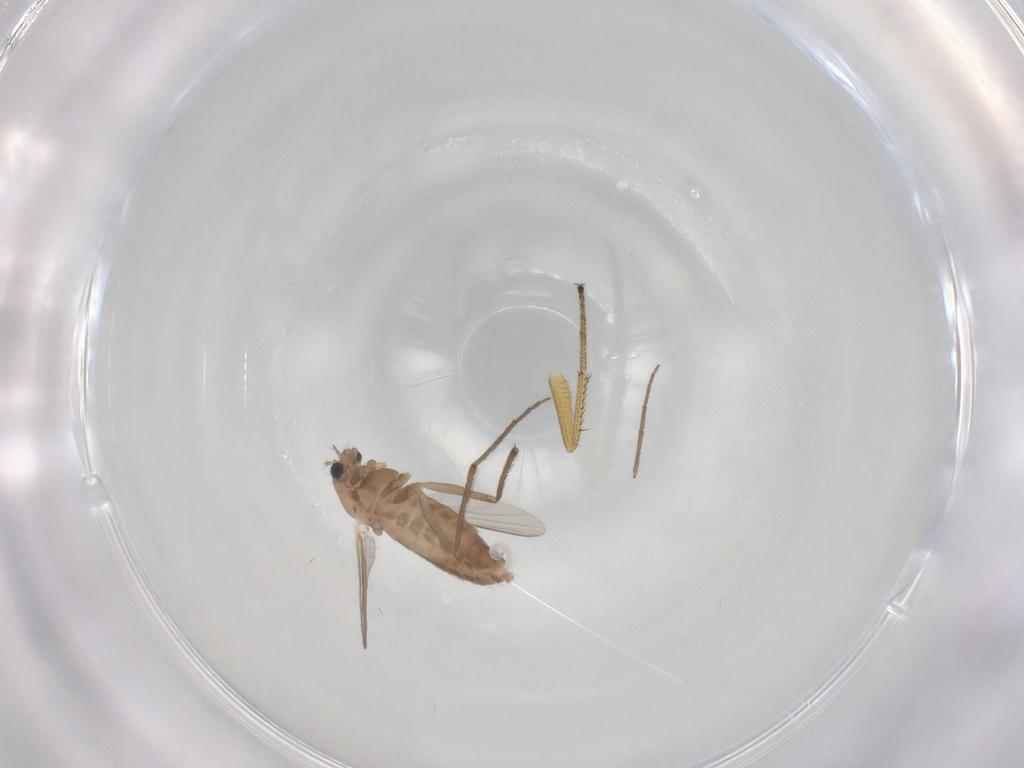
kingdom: Animalia
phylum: Arthropoda
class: Insecta
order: Diptera
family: Chironomidae
